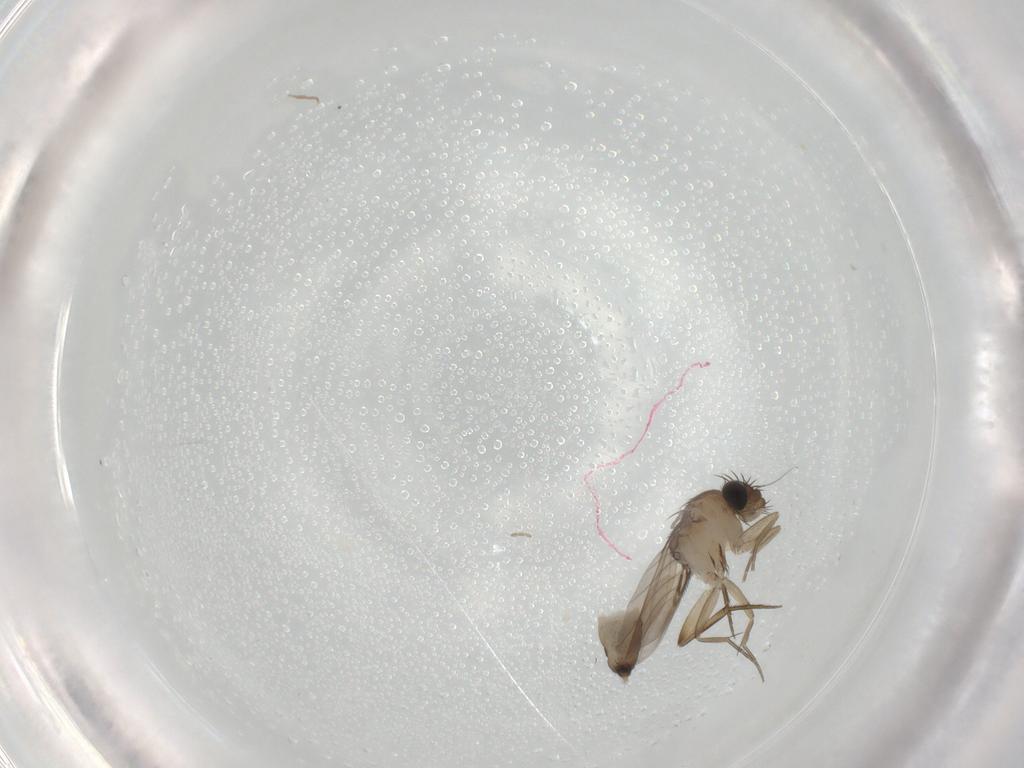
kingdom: Animalia
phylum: Arthropoda
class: Insecta
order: Diptera
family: Phoridae
